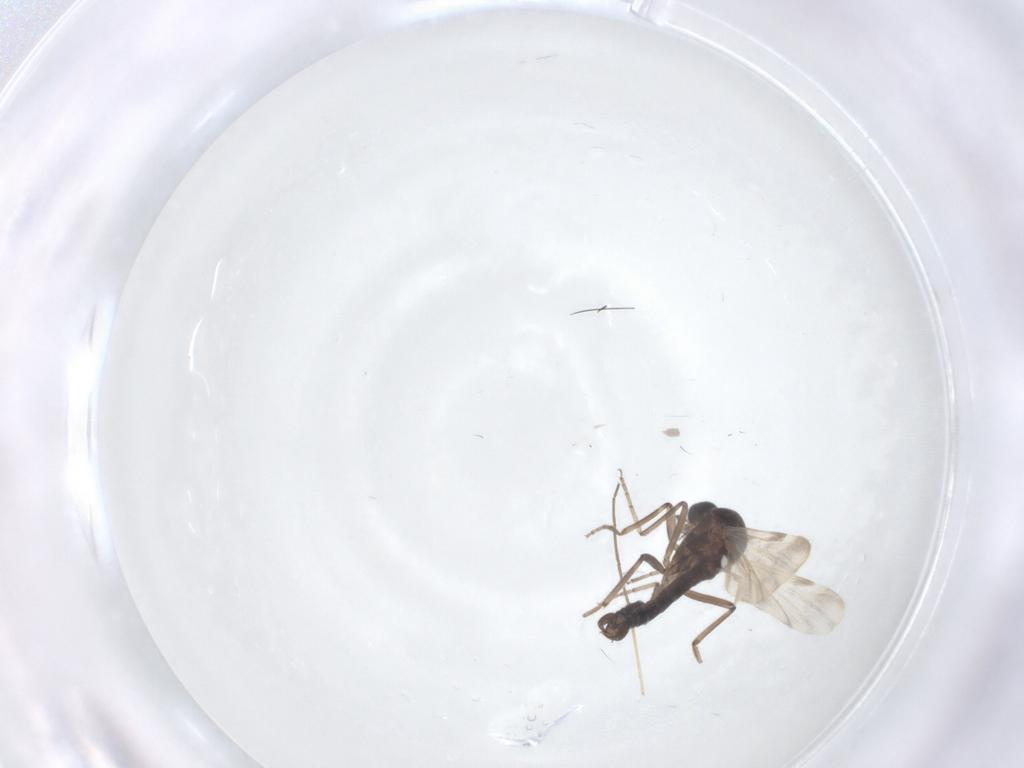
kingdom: Animalia
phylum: Arthropoda
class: Insecta
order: Diptera
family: Ceratopogonidae
